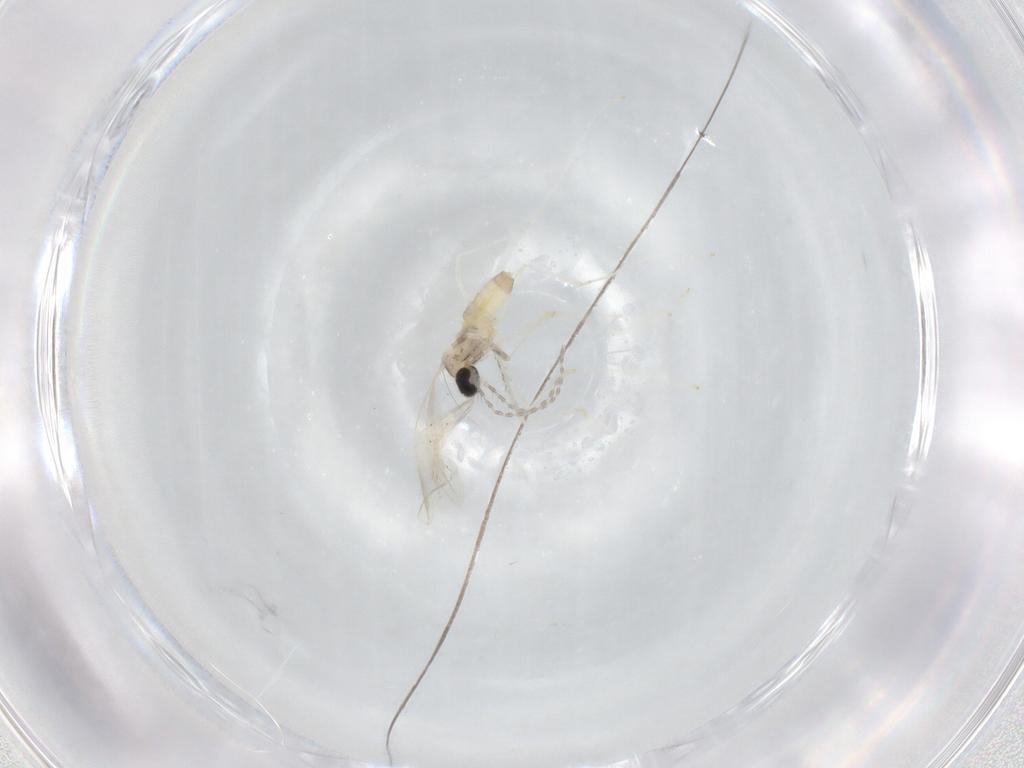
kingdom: Animalia
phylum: Arthropoda
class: Insecta
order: Diptera
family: Cecidomyiidae
